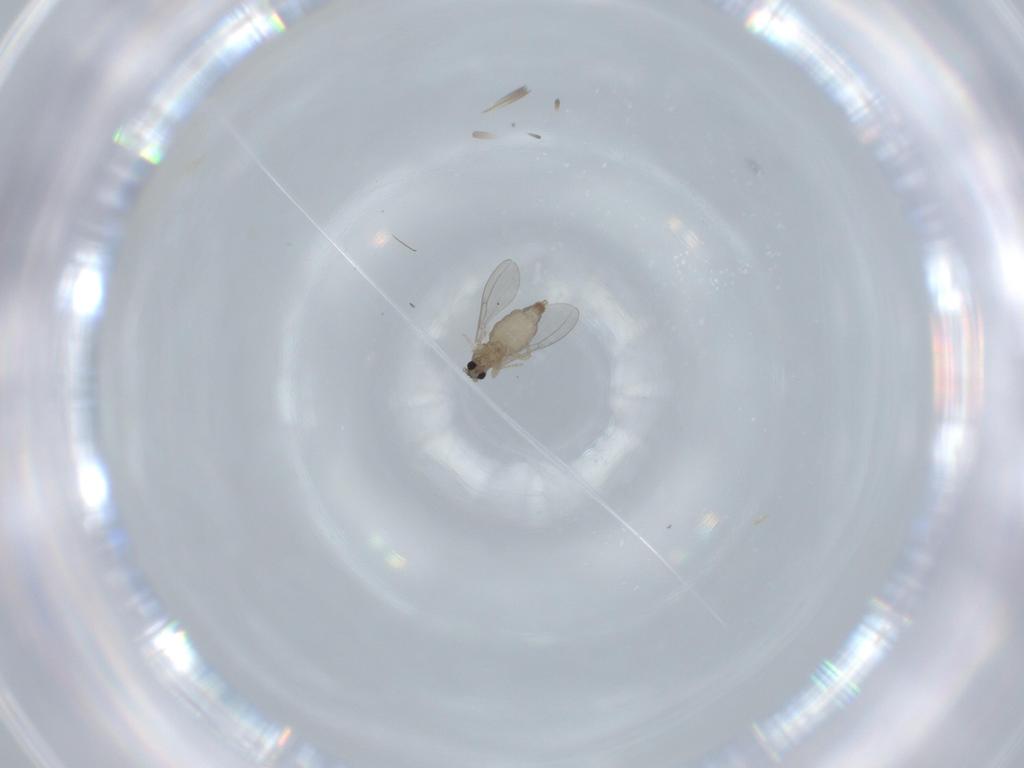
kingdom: Animalia
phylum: Arthropoda
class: Insecta
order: Diptera
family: Cecidomyiidae
